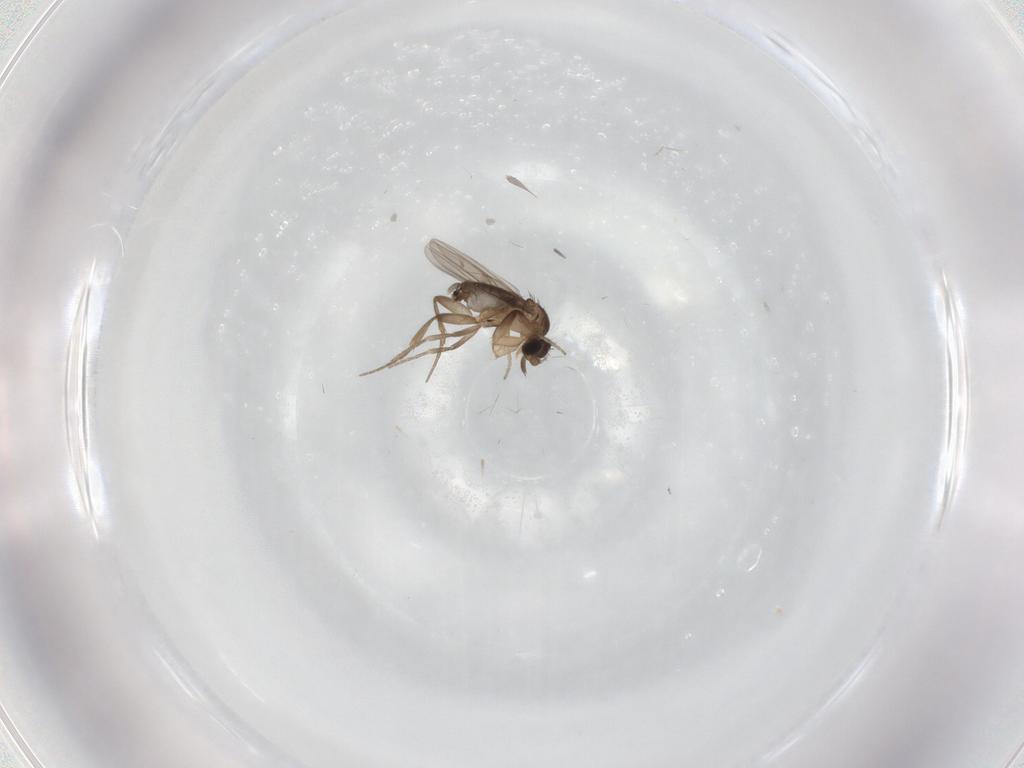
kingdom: Animalia
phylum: Arthropoda
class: Insecta
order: Diptera
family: Phoridae
